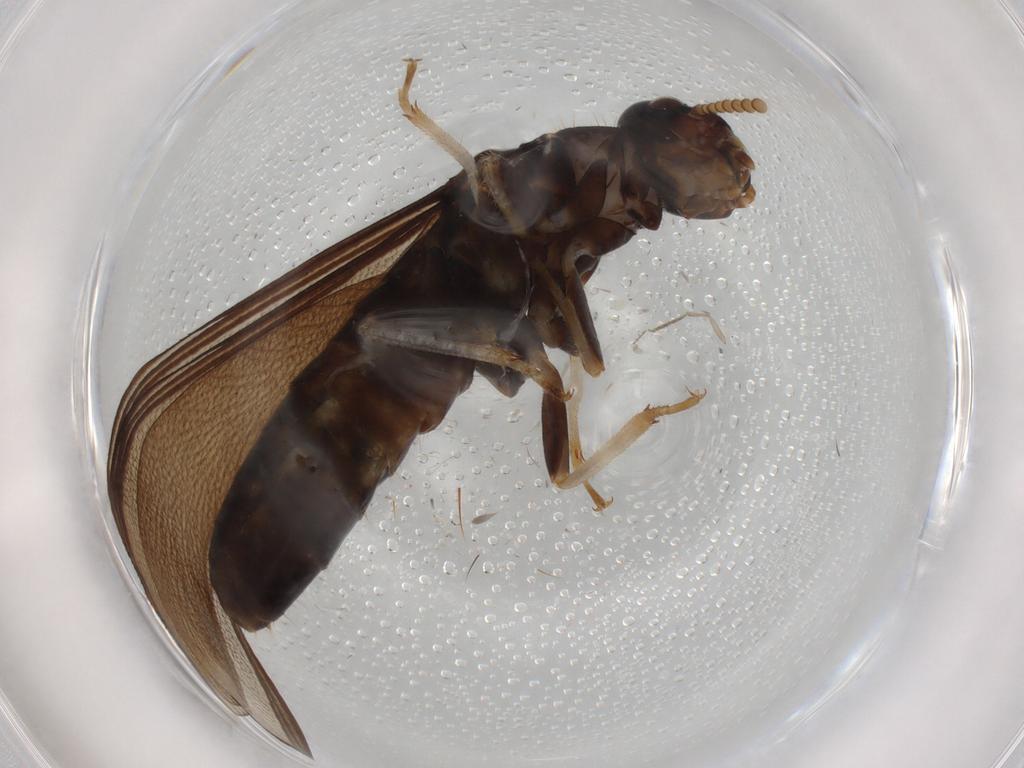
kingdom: Animalia
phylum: Arthropoda
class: Insecta
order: Blattodea
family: Kalotermitidae
